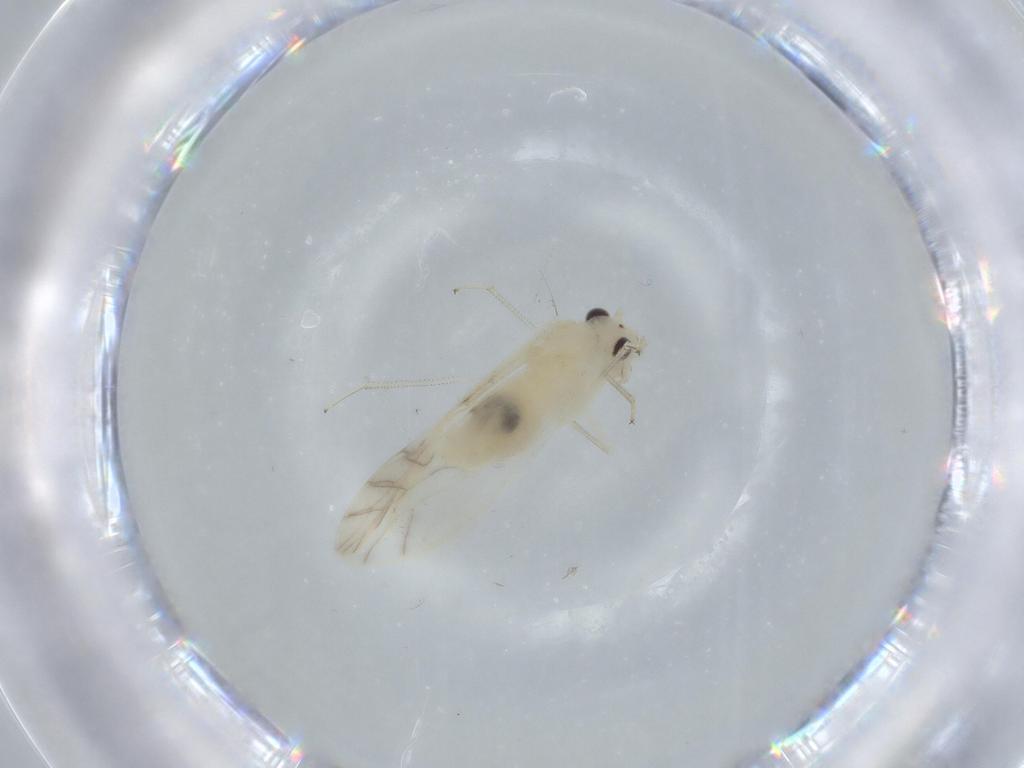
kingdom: Animalia
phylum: Arthropoda
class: Insecta
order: Psocodea
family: Caeciliusidae
